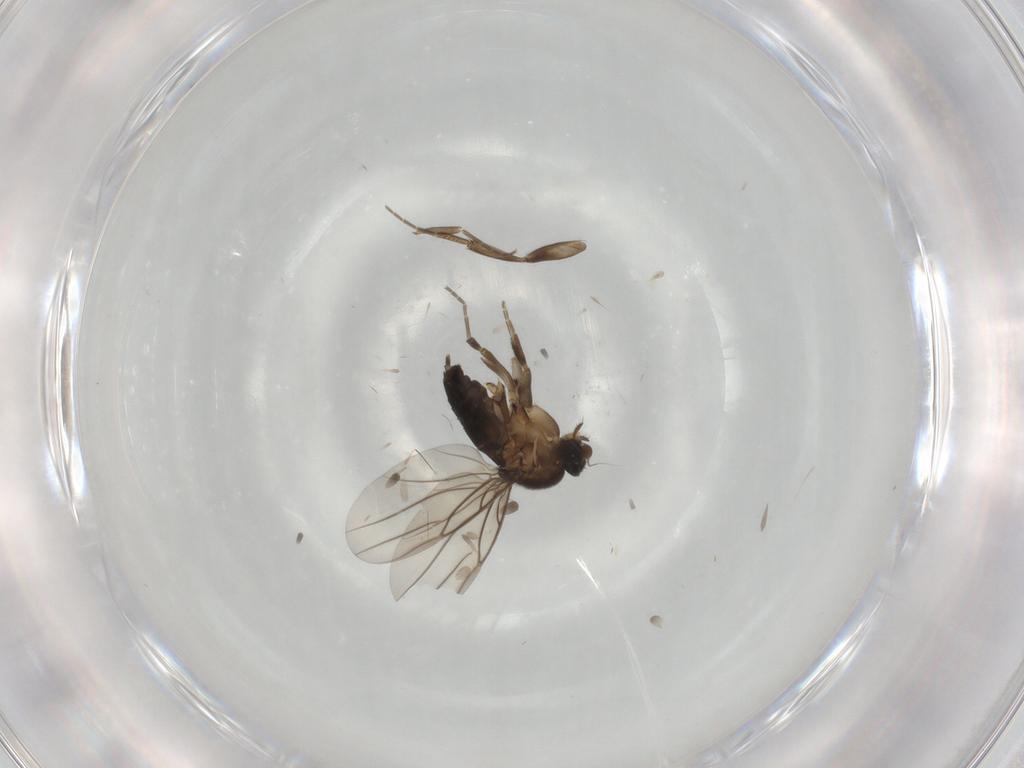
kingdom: Animalia
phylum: Arthropoda
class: Insecta
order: Diptera
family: Phoridae
